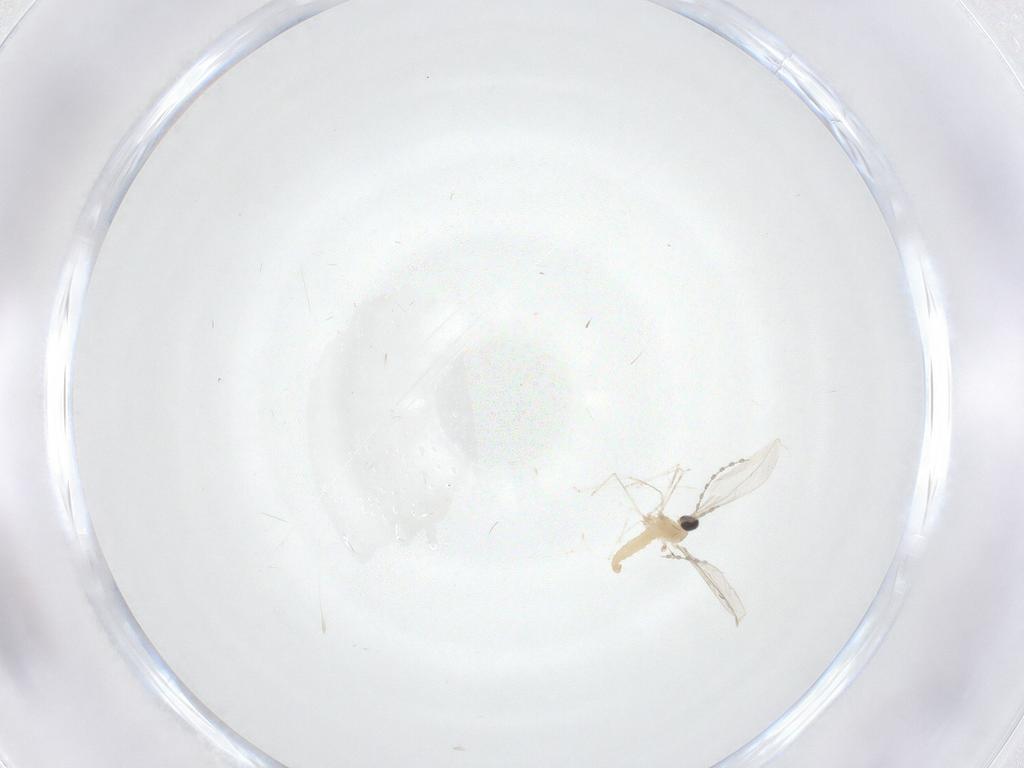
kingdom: Animalia
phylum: Arthropoda
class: Insecta
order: Diptera
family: Cecidomyiidae
